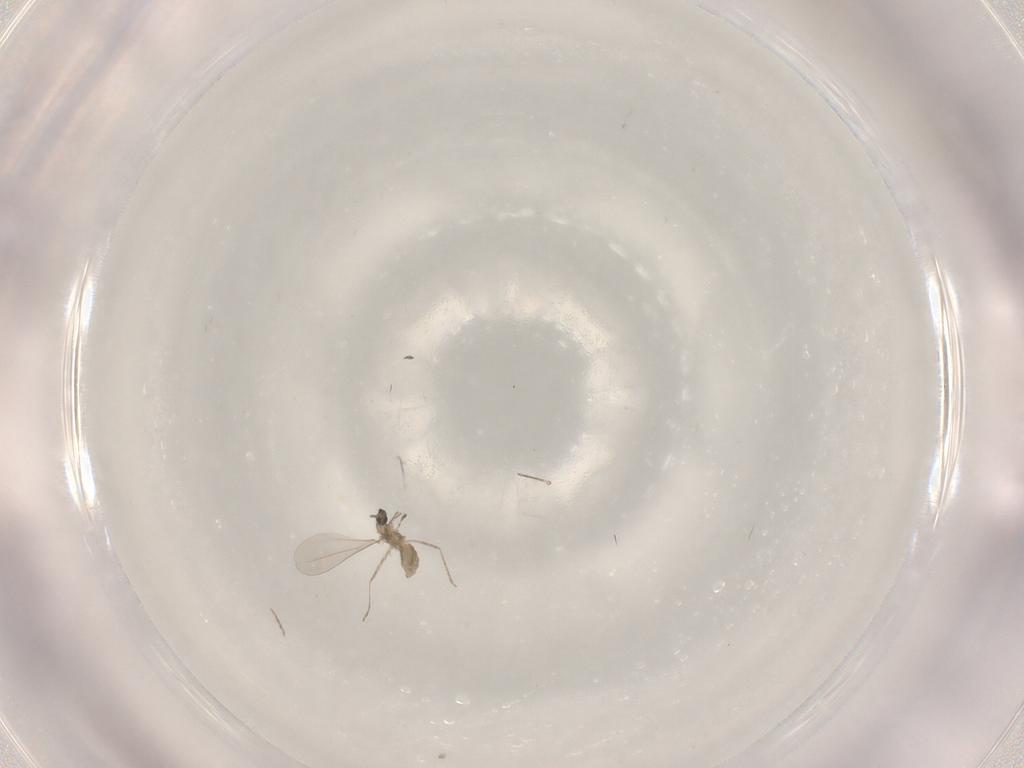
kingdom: Animalia
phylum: Arthropoda
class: Insecta
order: Diptera
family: Cecidomyiidae
